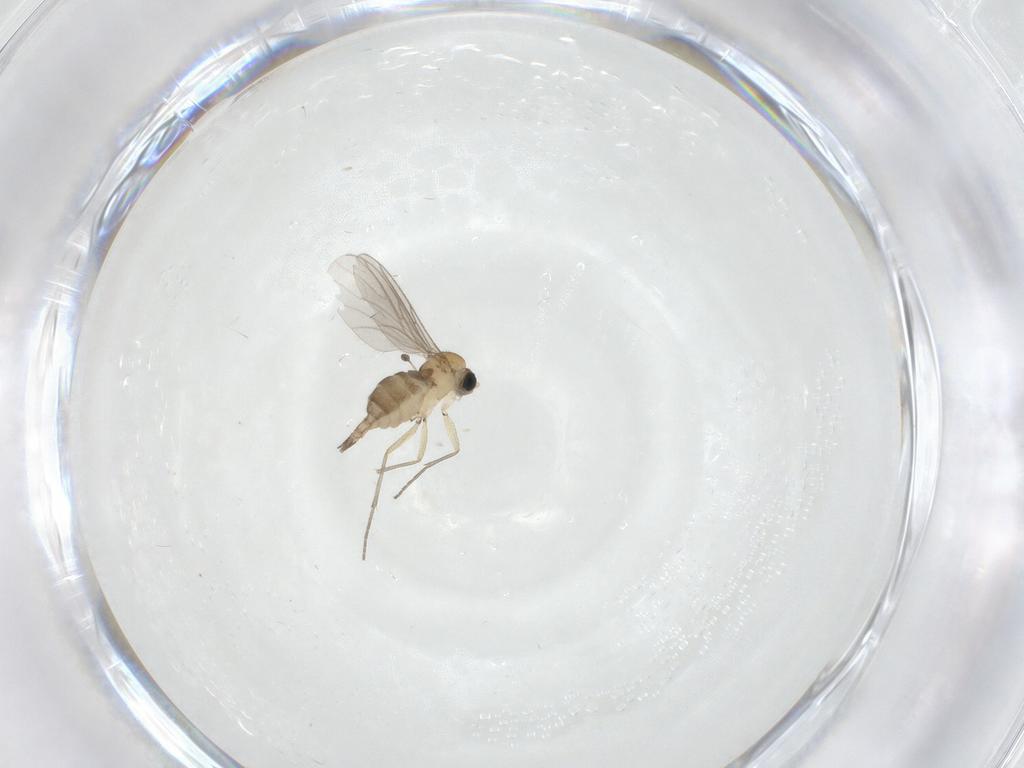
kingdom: Animalia
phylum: Arthropoda
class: Insecta
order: Diptera
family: Sciaridae
